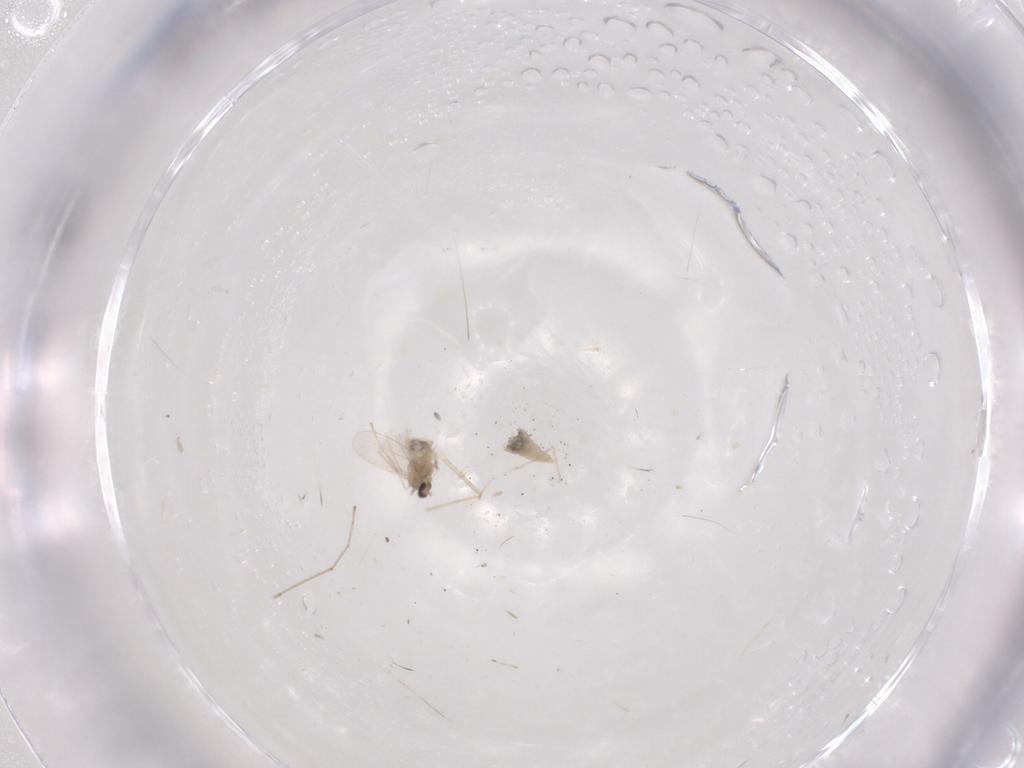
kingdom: Animalia
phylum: Arthropoda
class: Insecta
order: Diptera
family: Cecidomyiidae
